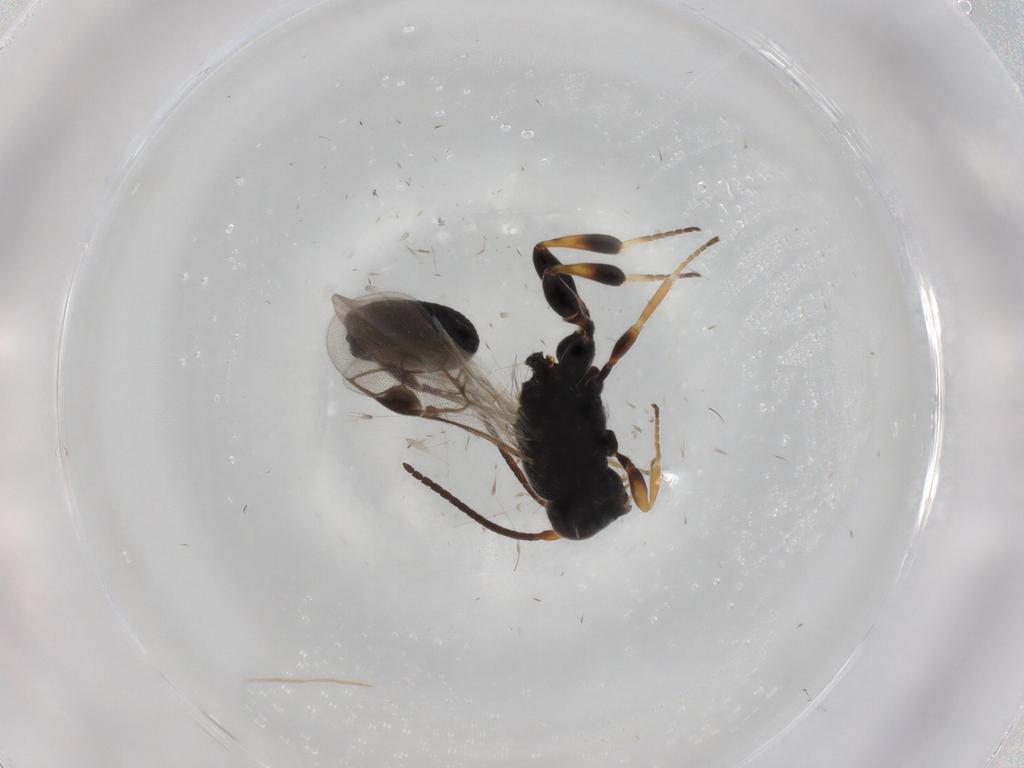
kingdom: Animalia
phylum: Arthropoda
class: Insecta
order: Hymenoptera
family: Braconidae
